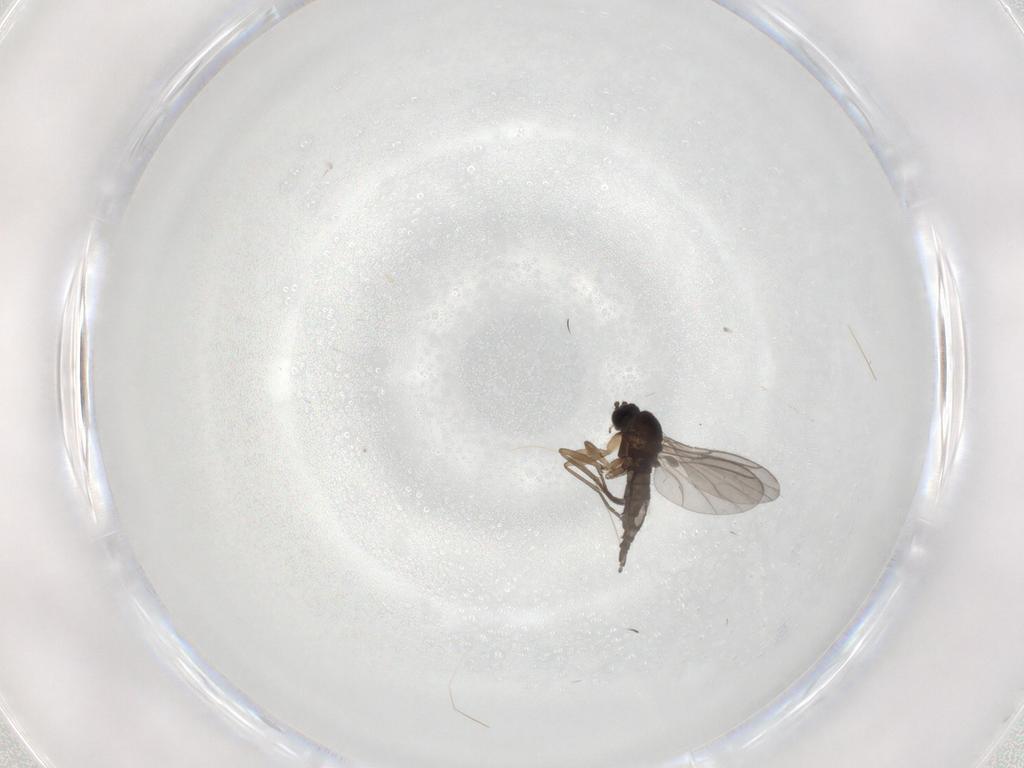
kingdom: Animalia
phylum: Arthropoda
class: Insecta
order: Diptera
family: Sciaridae
